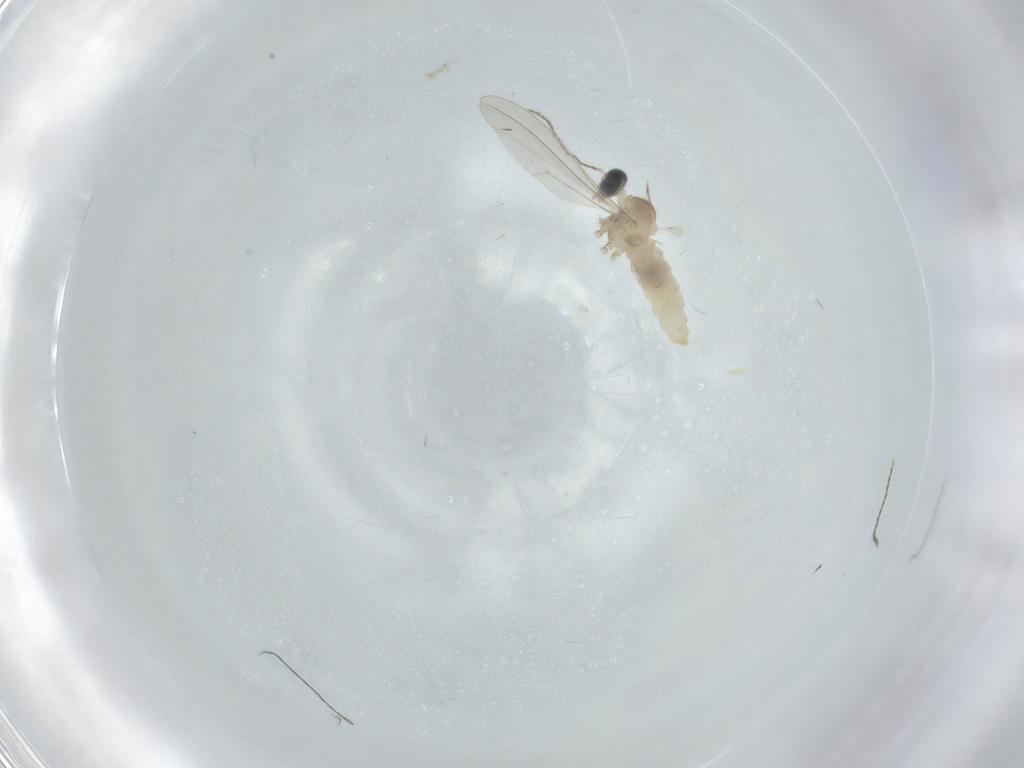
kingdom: Animalia
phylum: Arthropoda
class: Insecta
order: Diptera
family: Cecidomyiidae
